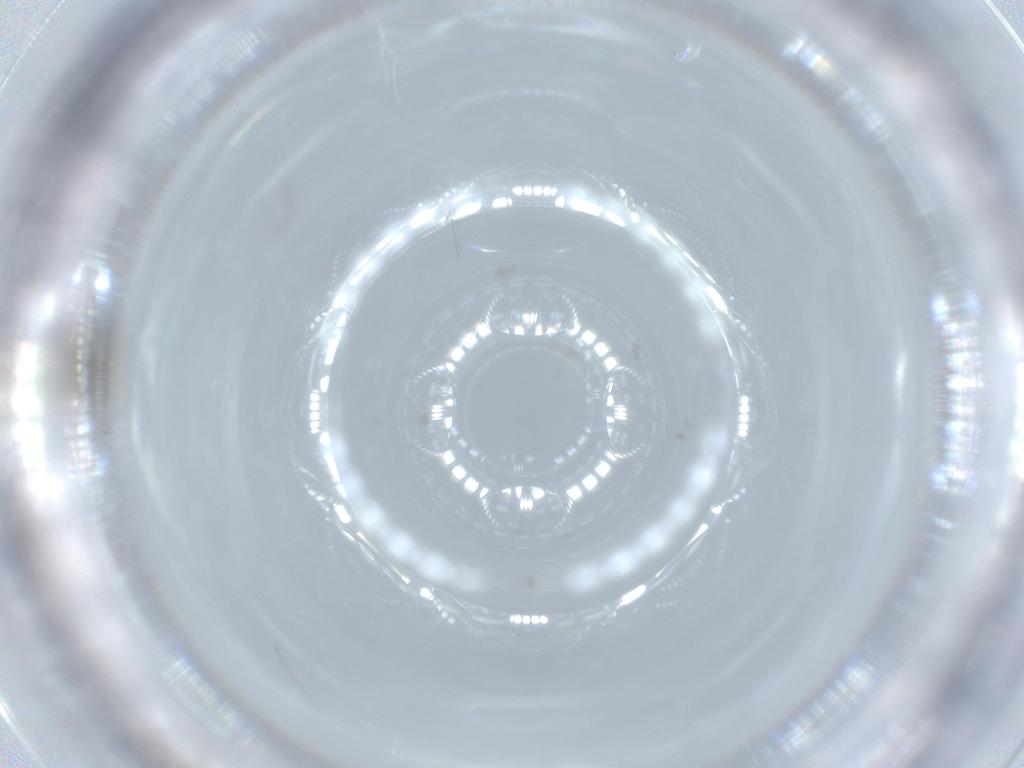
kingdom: Animalia
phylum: Arthropoda
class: Insecta
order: Hymenoptera
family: Platygastridae
